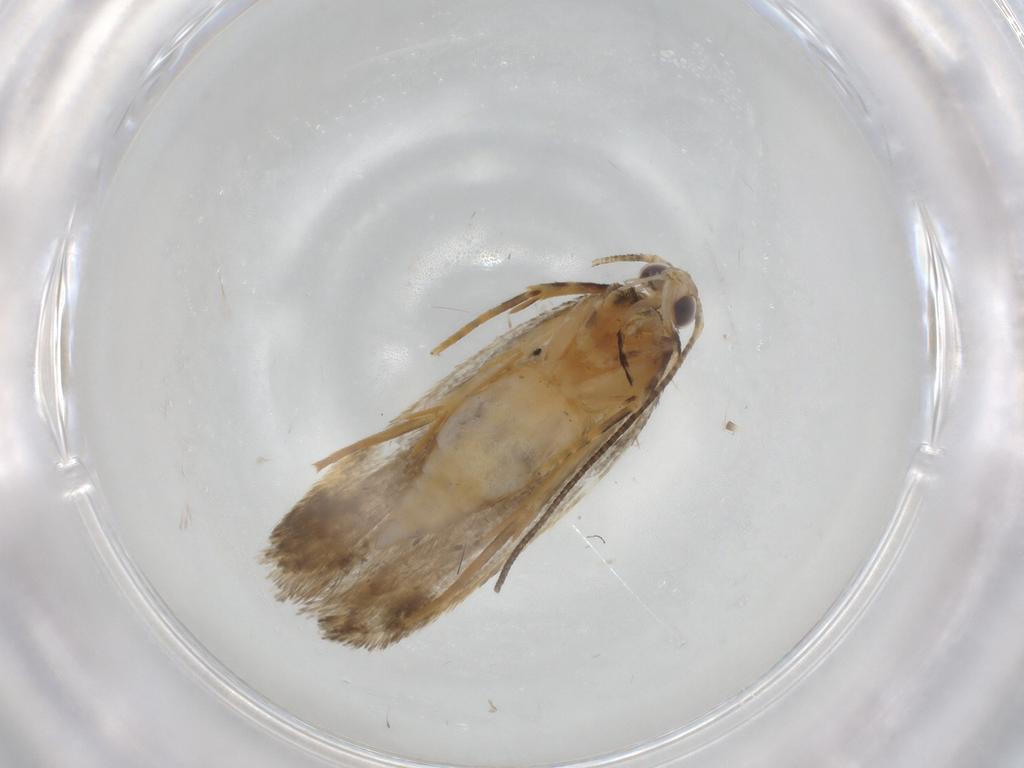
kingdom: Animalia
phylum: Arthropoda
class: Insecta
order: Lepidoptera
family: Autostichidae
